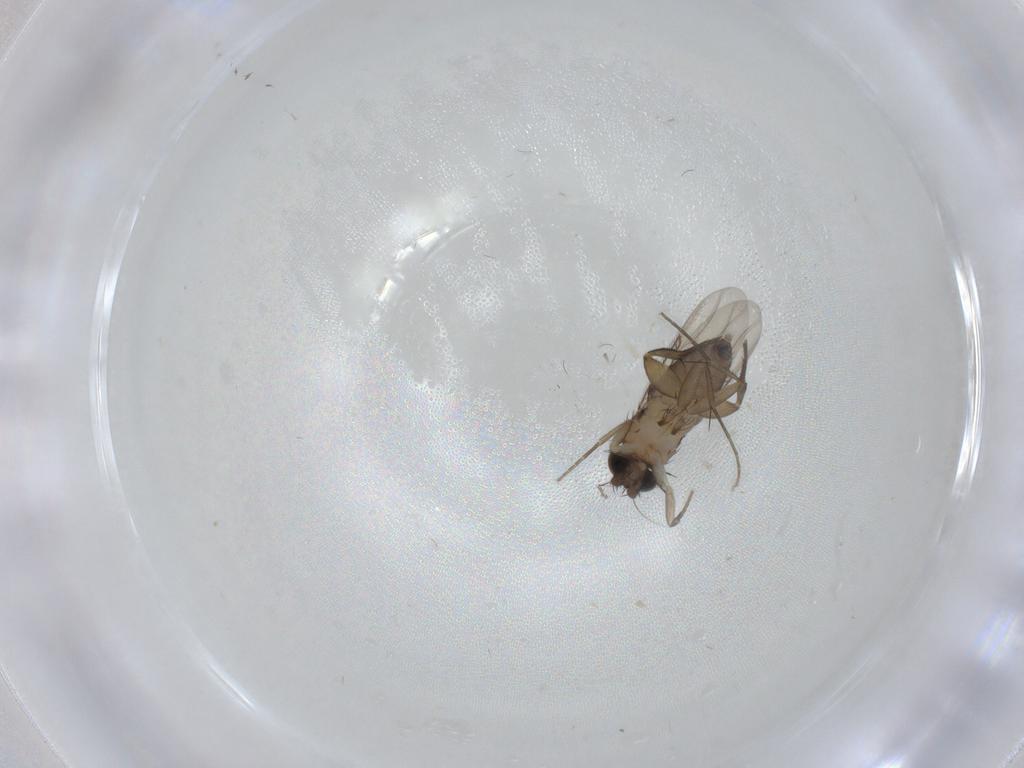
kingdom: Animalia
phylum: Arthropoda
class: Insecta
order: Diptera
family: Phoridae
